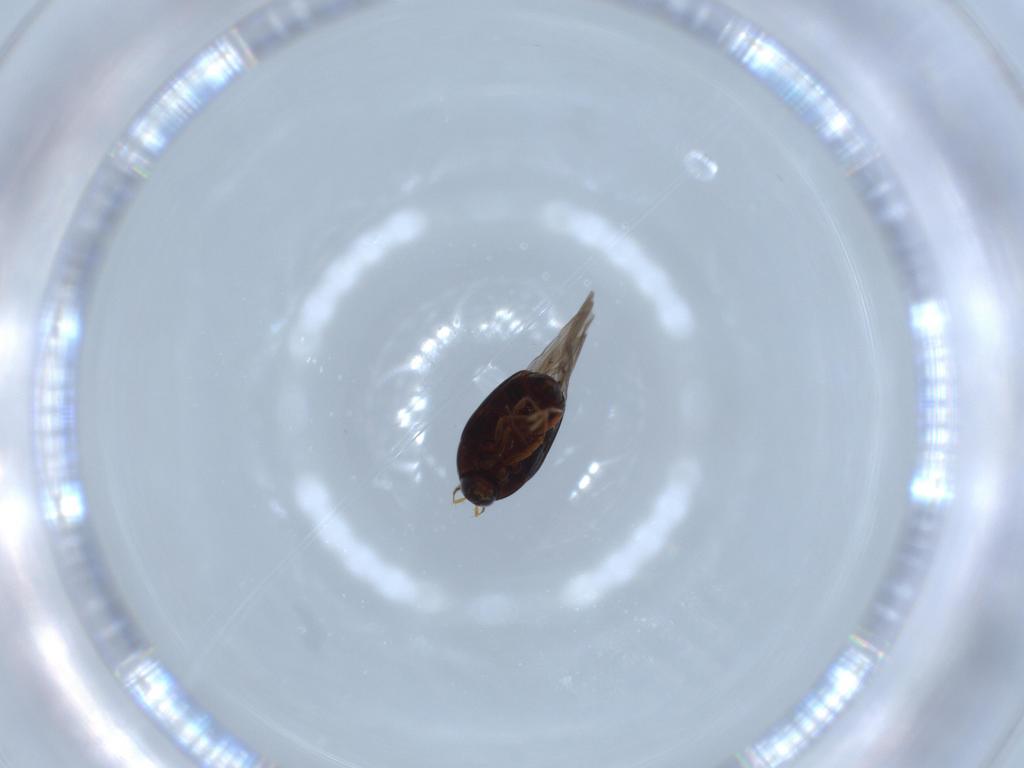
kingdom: Animalia
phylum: Arthropoda
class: Insecta
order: Coleoptera
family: Staphylinidae
